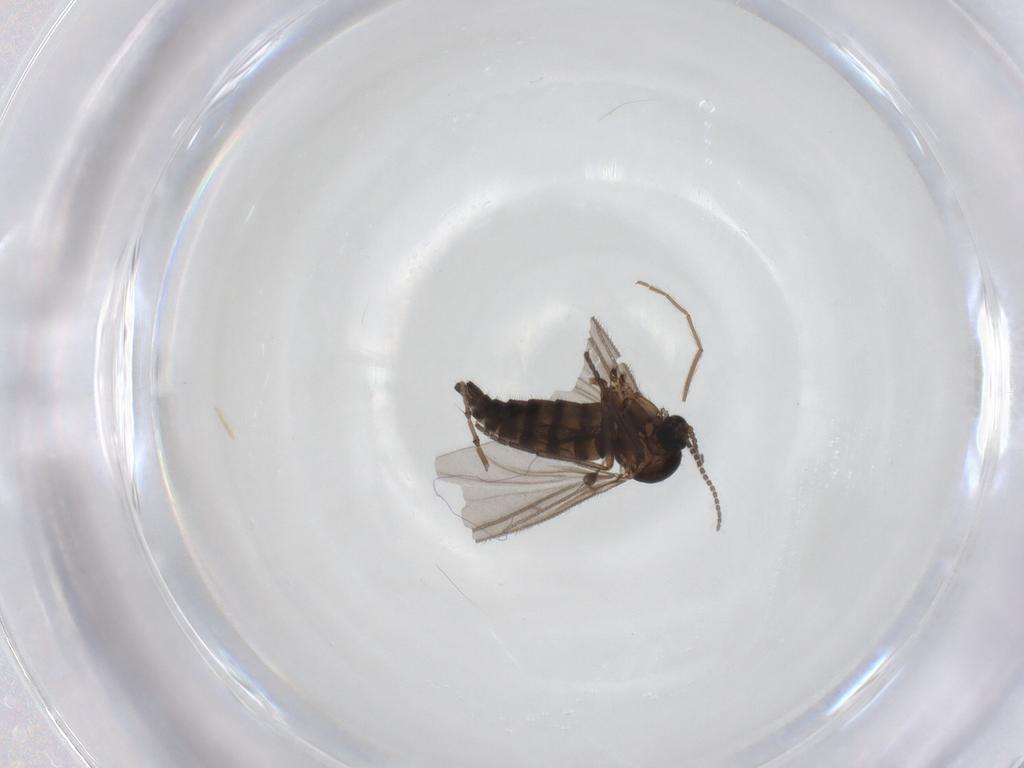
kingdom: Animalia
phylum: Arthropoda
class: Insecta
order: Diptera
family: Sciaridae
